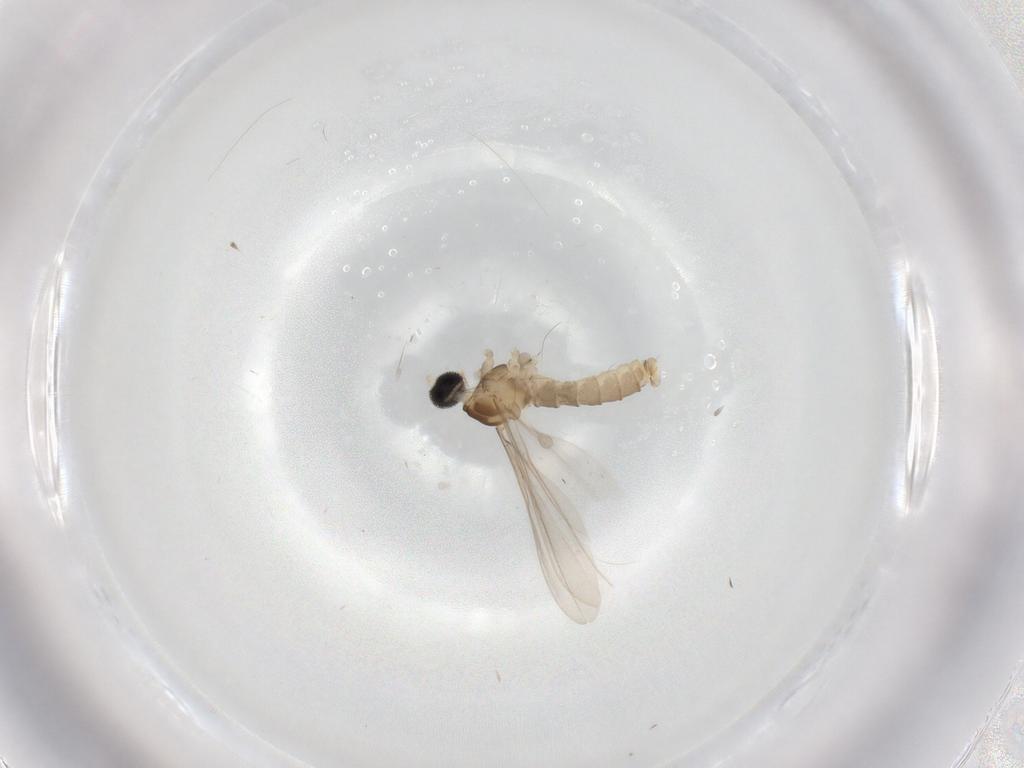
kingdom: Animalia
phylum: Arthropoda
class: Insecta
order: Diptera
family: Cecidomyiidae
